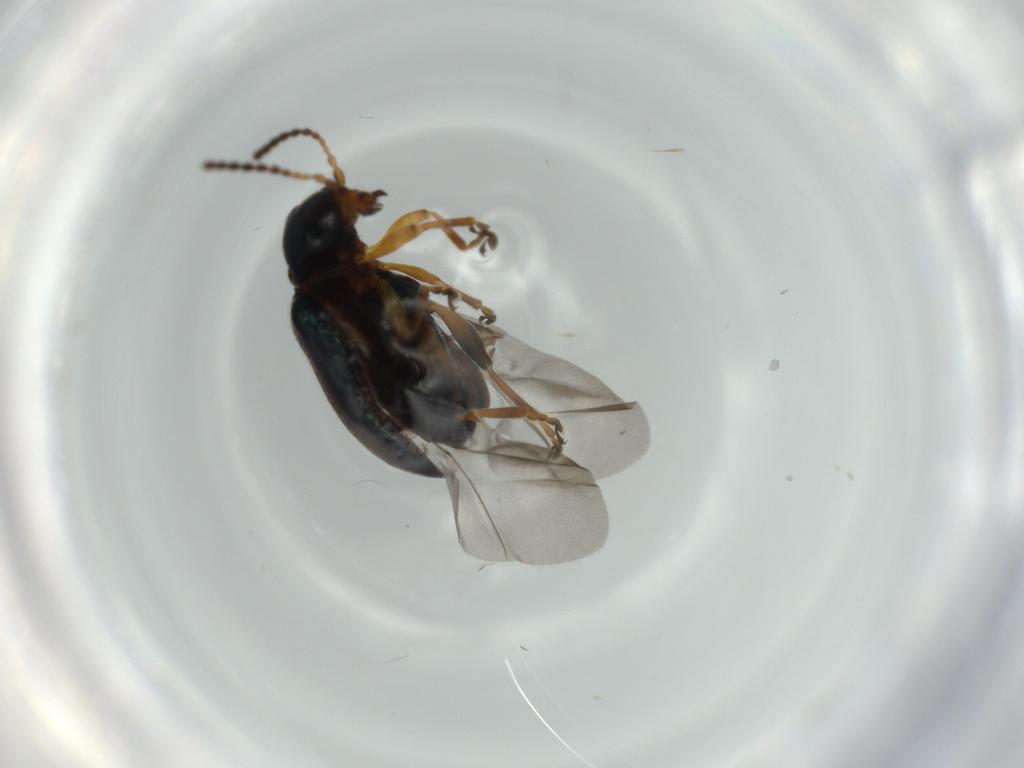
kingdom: Animalia
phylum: Arthropoda
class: Insecta
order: Coleoptera
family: Chrysomelidae
